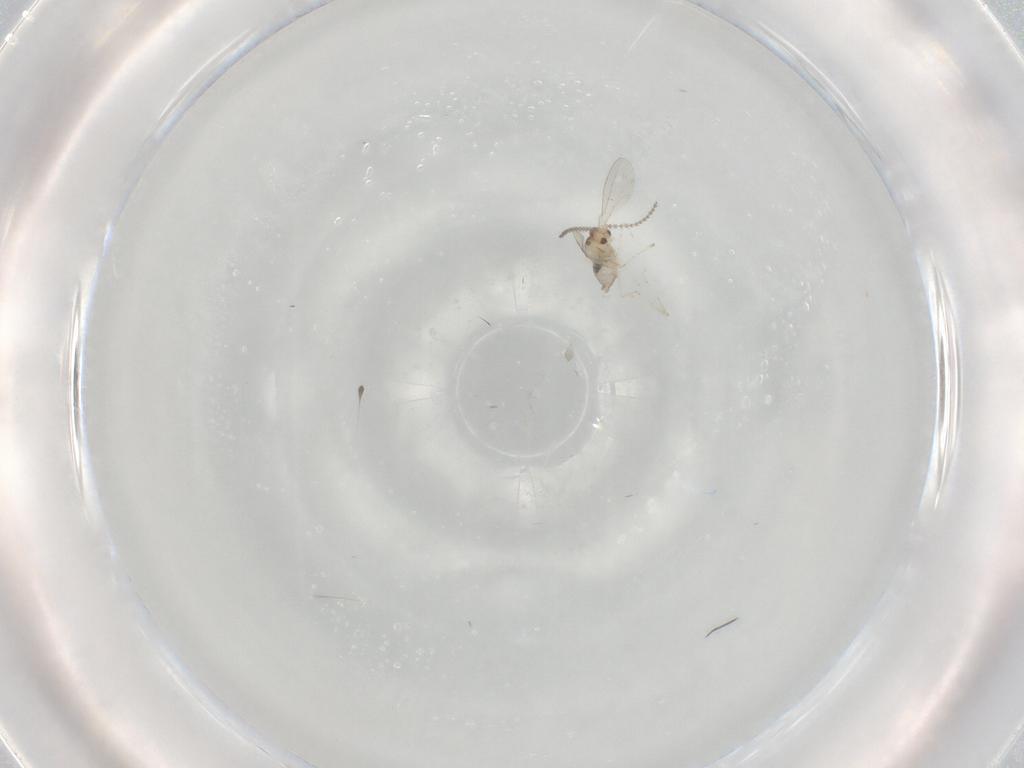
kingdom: Animalia
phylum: Arthropoda
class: Insecta
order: Diptera
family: Cecidomyiidae
